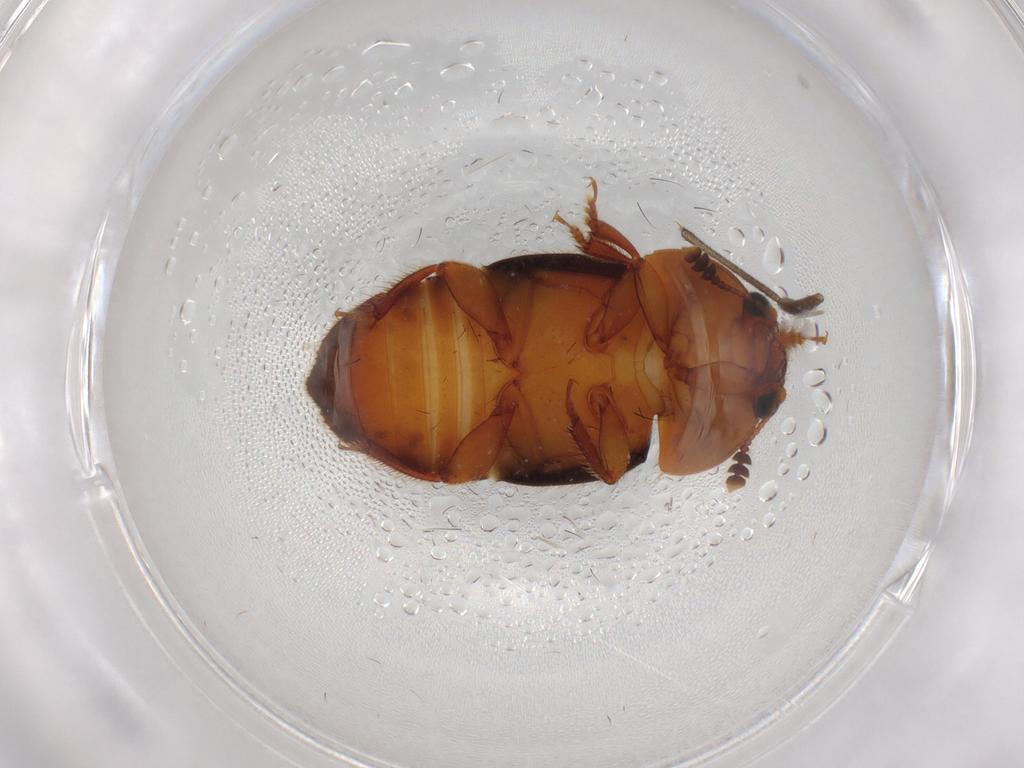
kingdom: Animalia
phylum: Arthropoda
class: Insecta
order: Coleoptera
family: Nitidulidae
